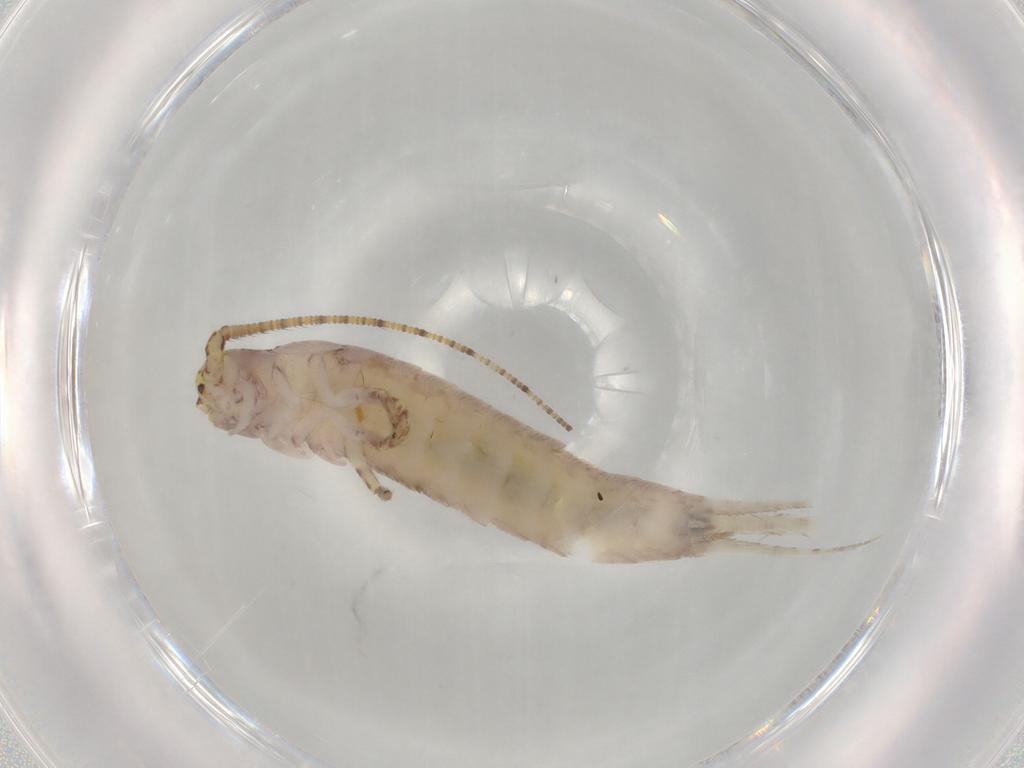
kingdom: Animalia
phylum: Arthropoda
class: Insecta
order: Archaeognatha
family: Machilidae
